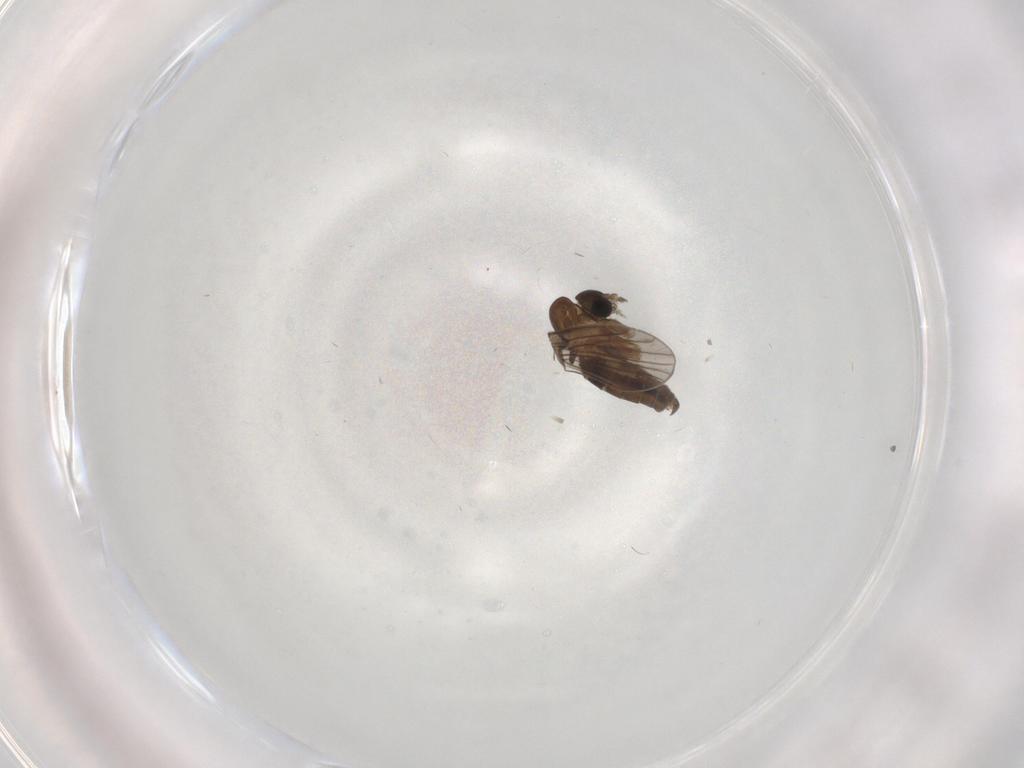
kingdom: Animalia
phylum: Arthropoda
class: Insecta
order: Diptera
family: Psychodidae
